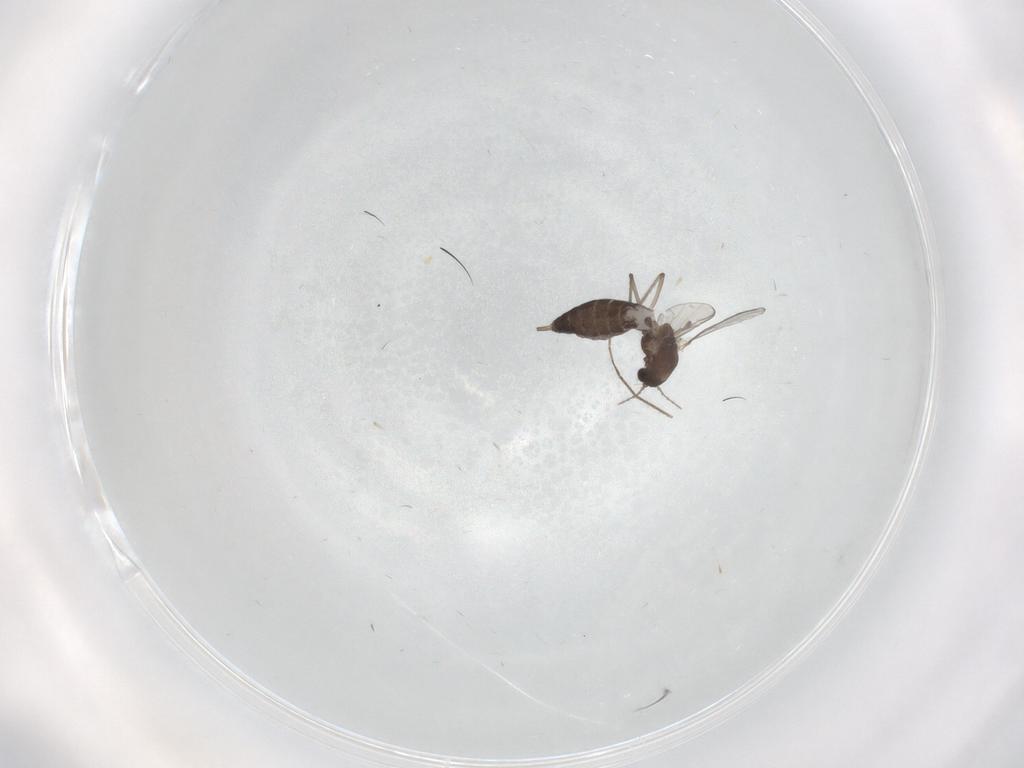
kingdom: Animalia
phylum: Arthropoda
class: Insecta
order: Diptera
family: Chironomidae
